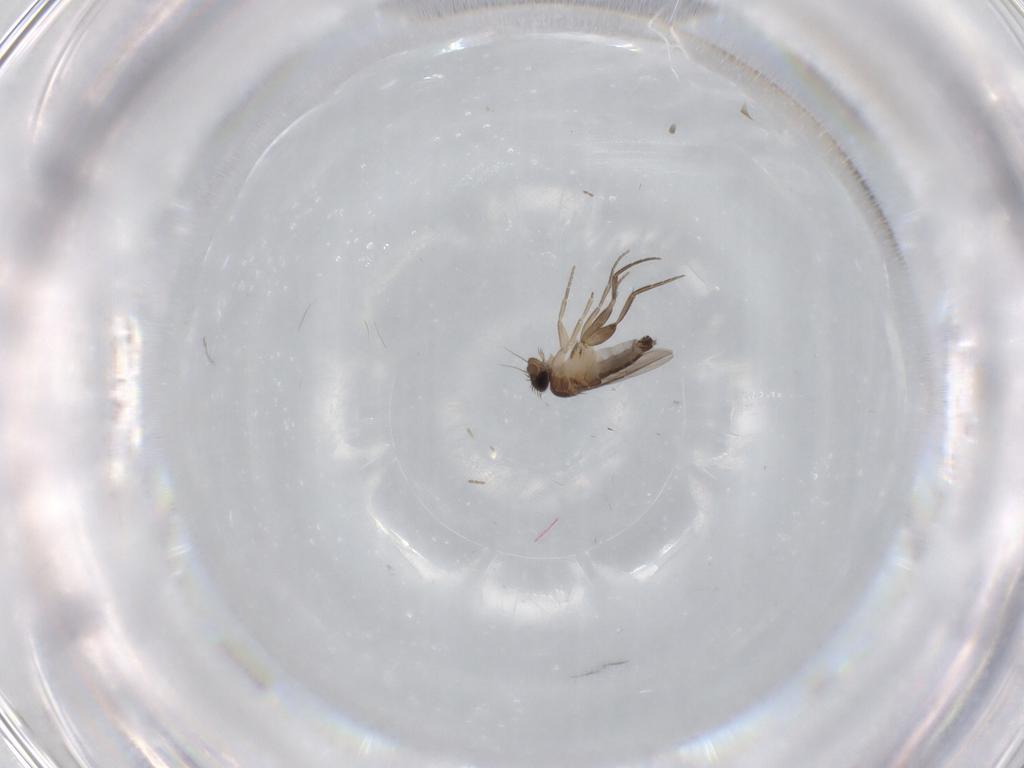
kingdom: Animalia
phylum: Arthropoda
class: Insecta
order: Diptera
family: Phoridae
